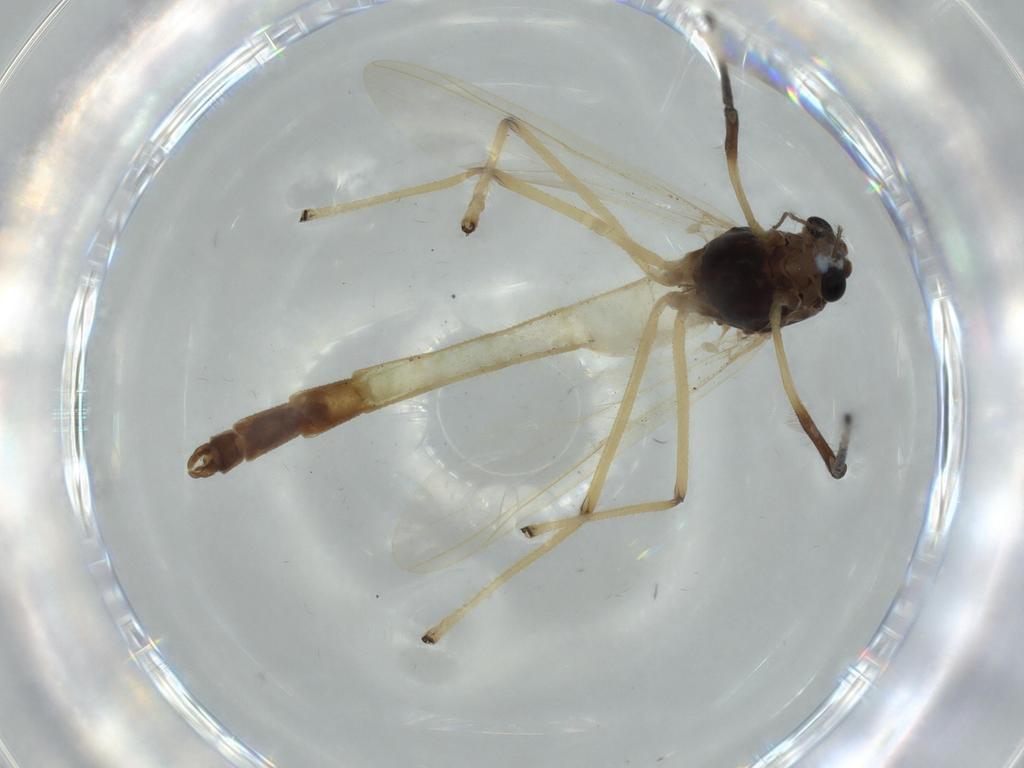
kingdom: Animalia
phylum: Arthropoda
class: Insecta
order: Diptera
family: Chironomidae
